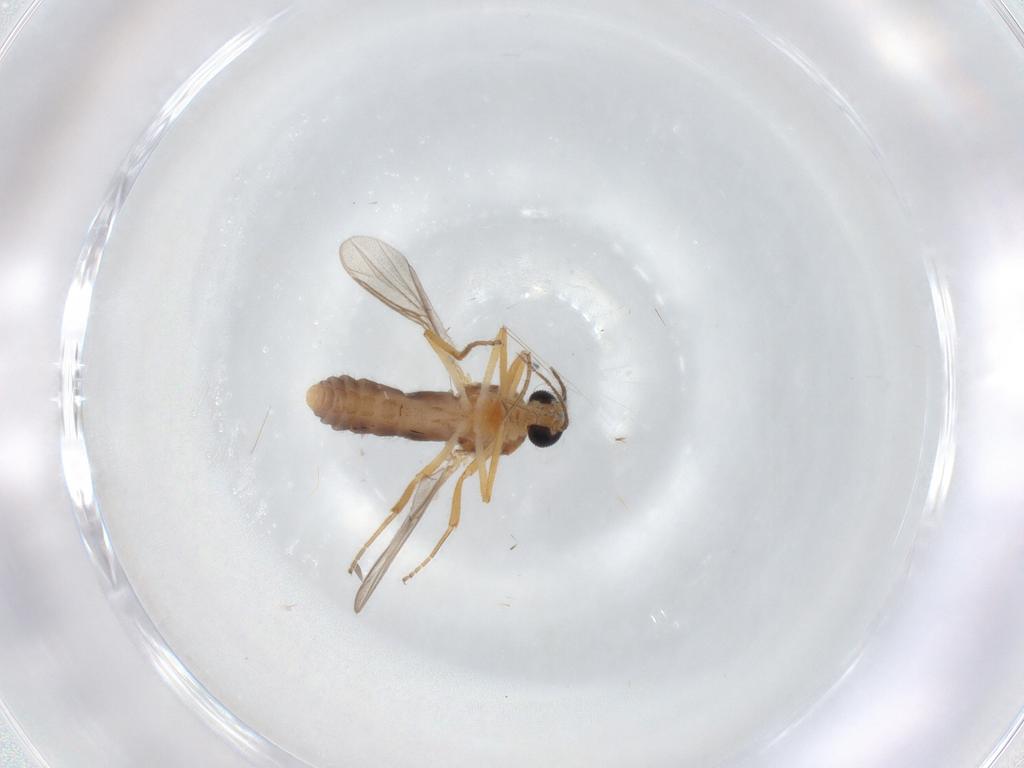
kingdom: Animalia
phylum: Arthropoda
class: Insecta
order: Diptera
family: Ceratopogonidae
